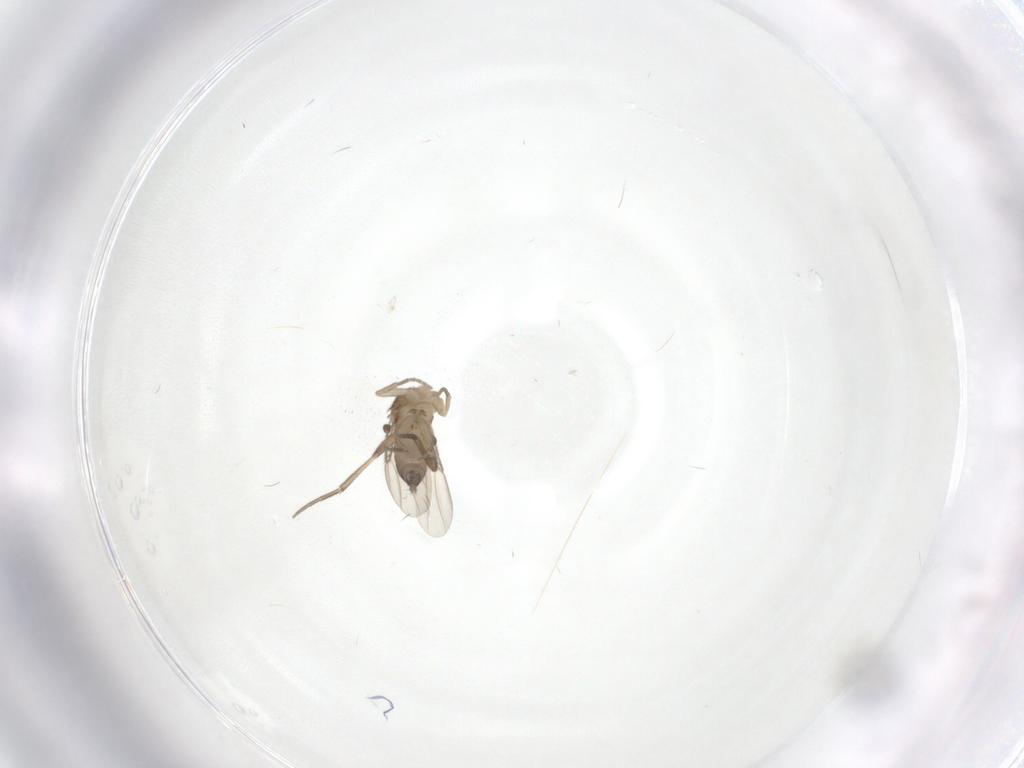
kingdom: Animalia
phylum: Arthropoda
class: Insecta
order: Diptera
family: Phoridae
